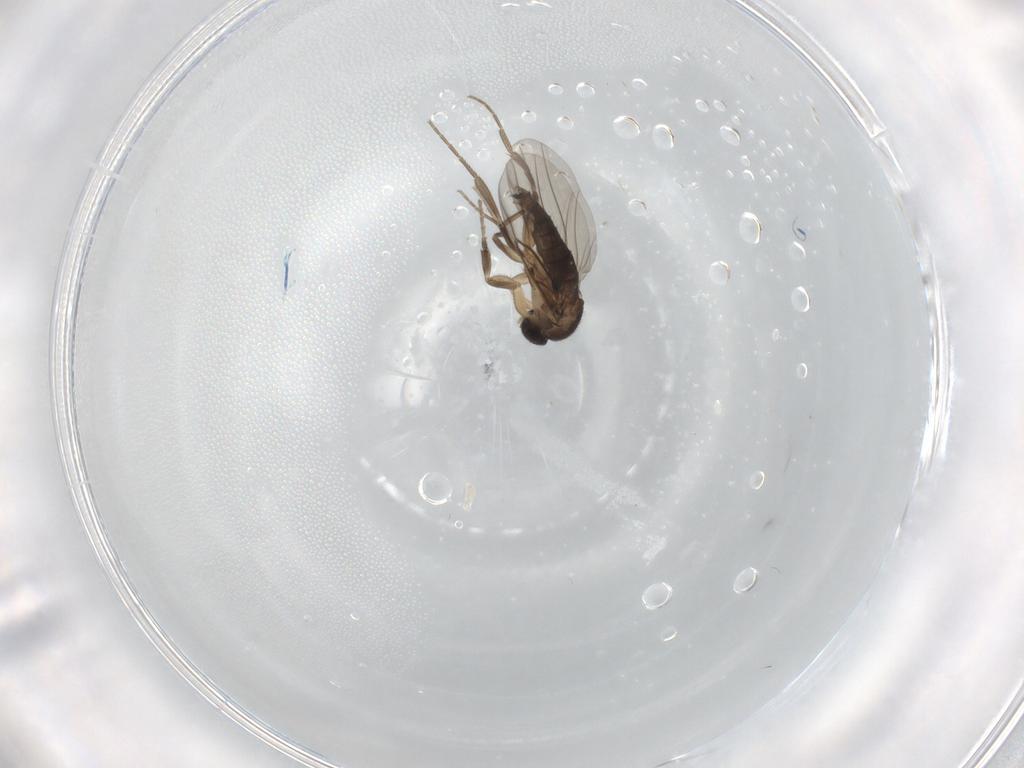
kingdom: Animalia
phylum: Arthropoda
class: Insecta
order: Diptera
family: Phoridae
